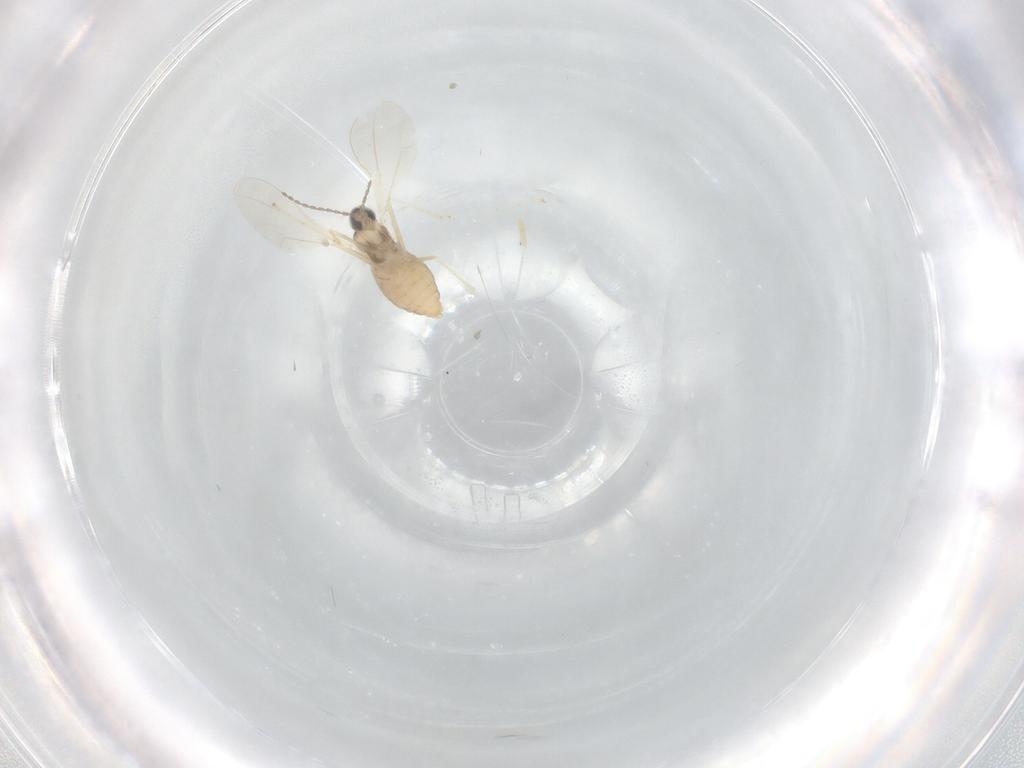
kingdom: Animalia
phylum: Arthropoda
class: Insecta
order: Diptera
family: Cecidomyiidae
